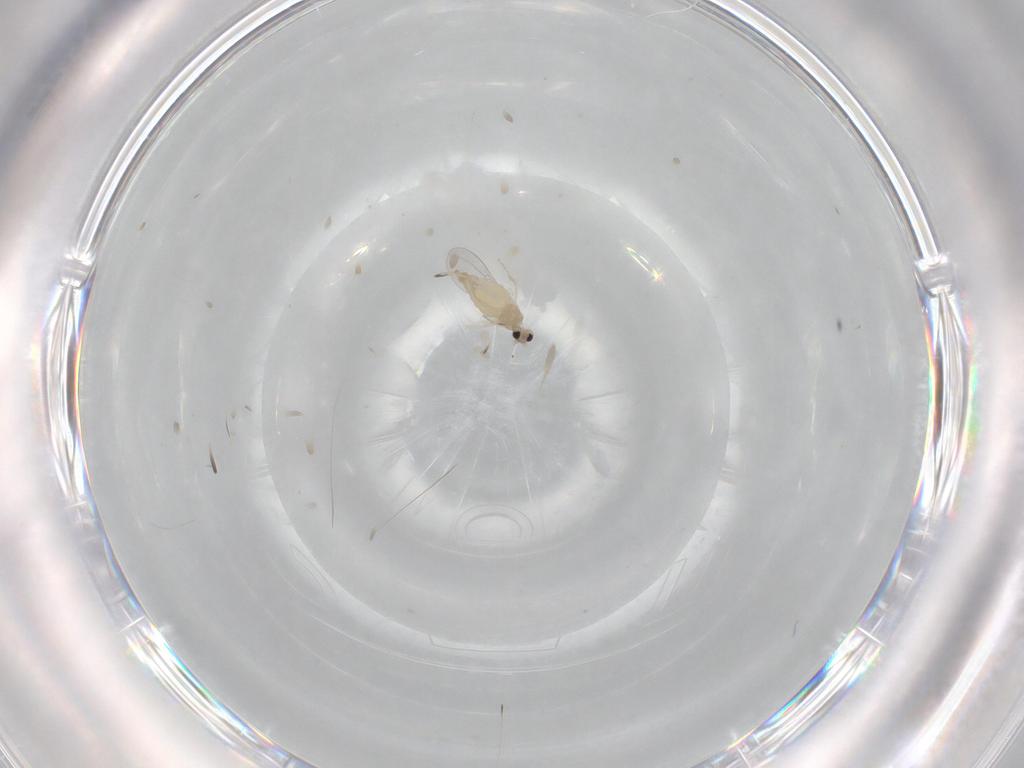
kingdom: Animalia
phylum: Arthropoda
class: Insecta
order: Diptera
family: Cecidomyiidae
